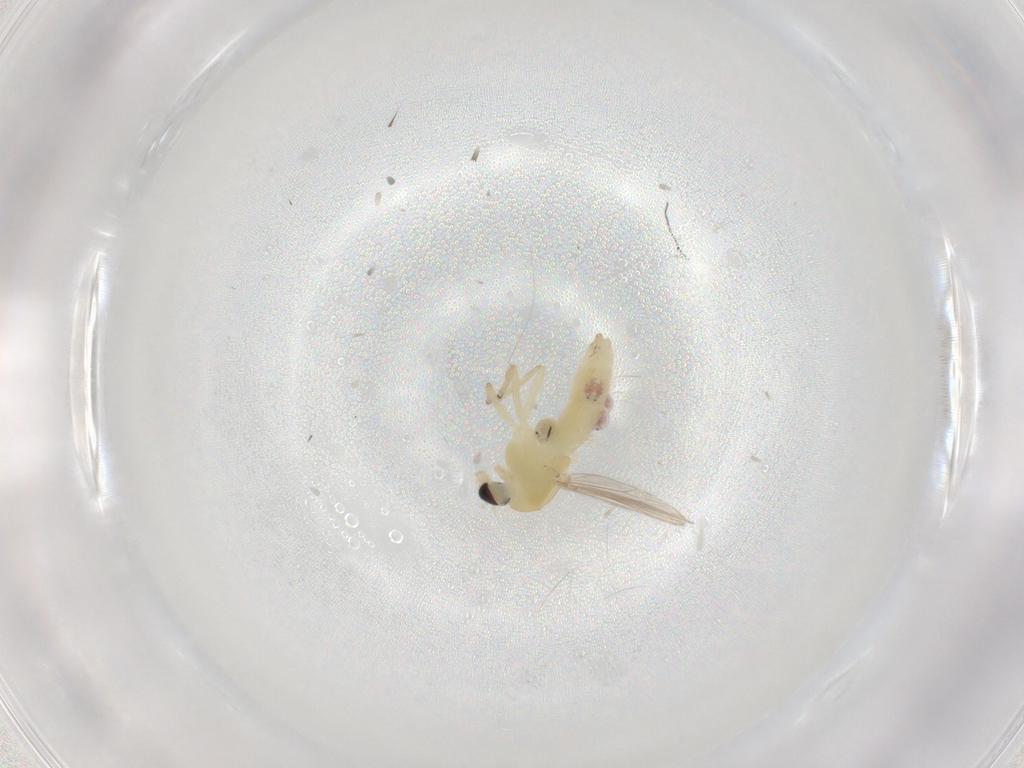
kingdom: Animalia
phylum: Arthropoda
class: Insecta
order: Diptera
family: Chironomidae
